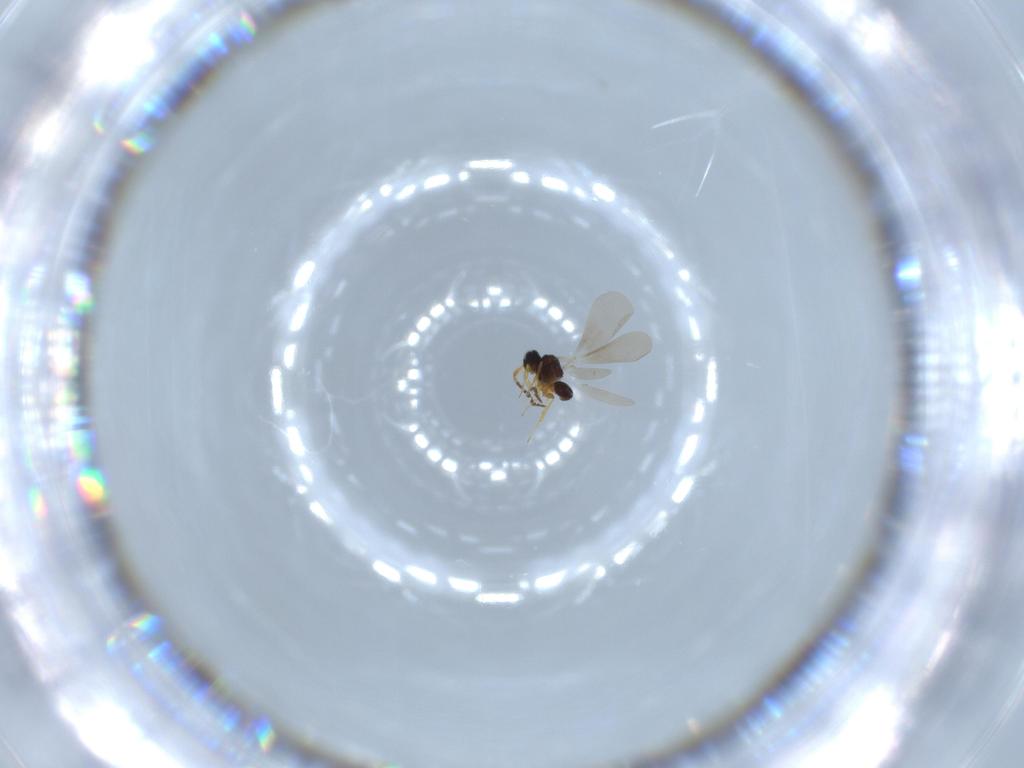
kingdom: Animalia
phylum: Arthropoda
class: Insecta
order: Hymenoptera
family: Platygastridae
